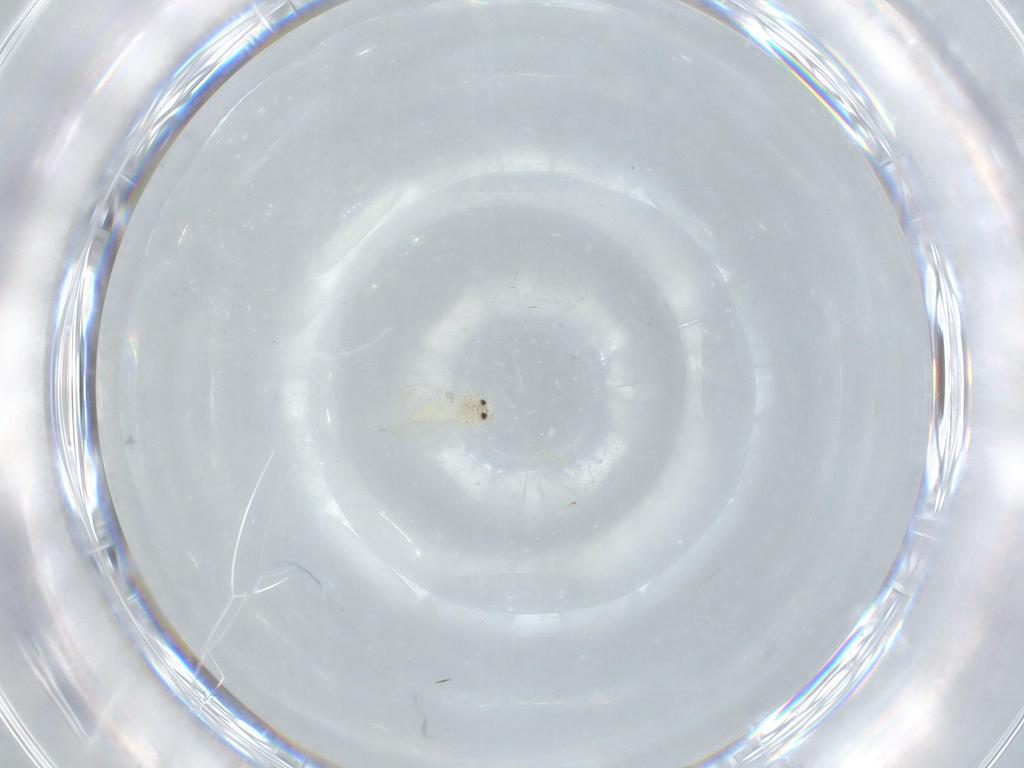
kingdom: Animalia
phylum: Arthropoda
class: Insecta
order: Hemiptera
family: Aleyrodidae
